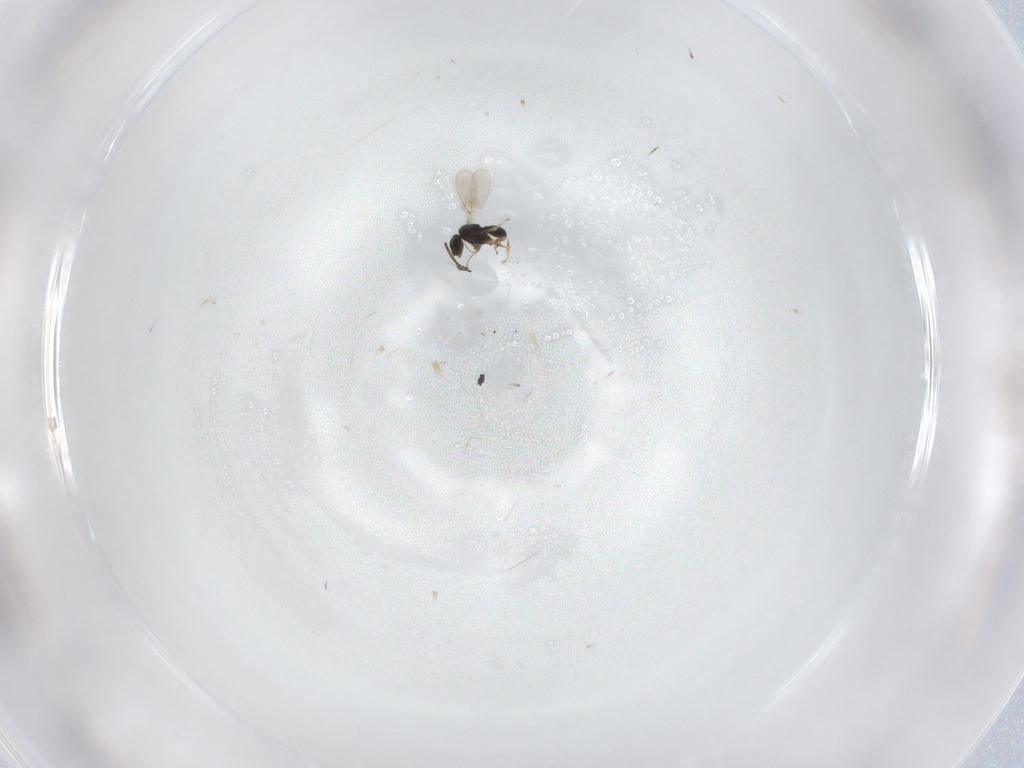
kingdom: Animalia
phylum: Arthropoda
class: Insecta
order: Hymenoptera
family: Pompilidae
